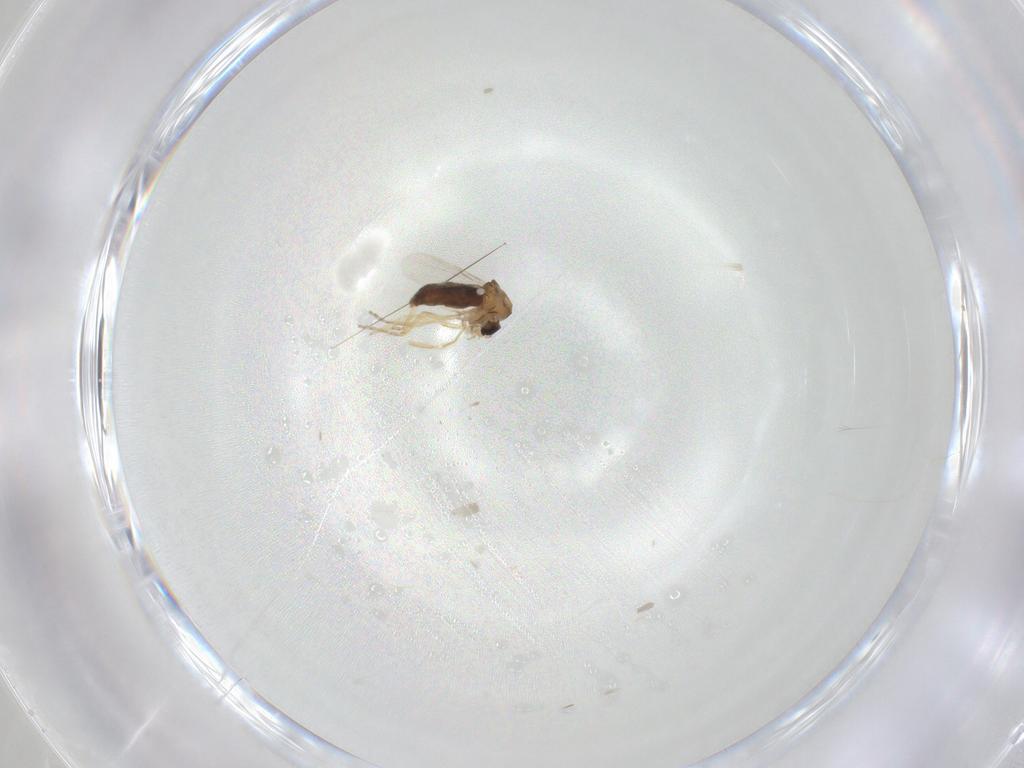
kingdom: Animalia
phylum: Arthropoda
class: Insecta
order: Diptera
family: Cecidomyiidae
